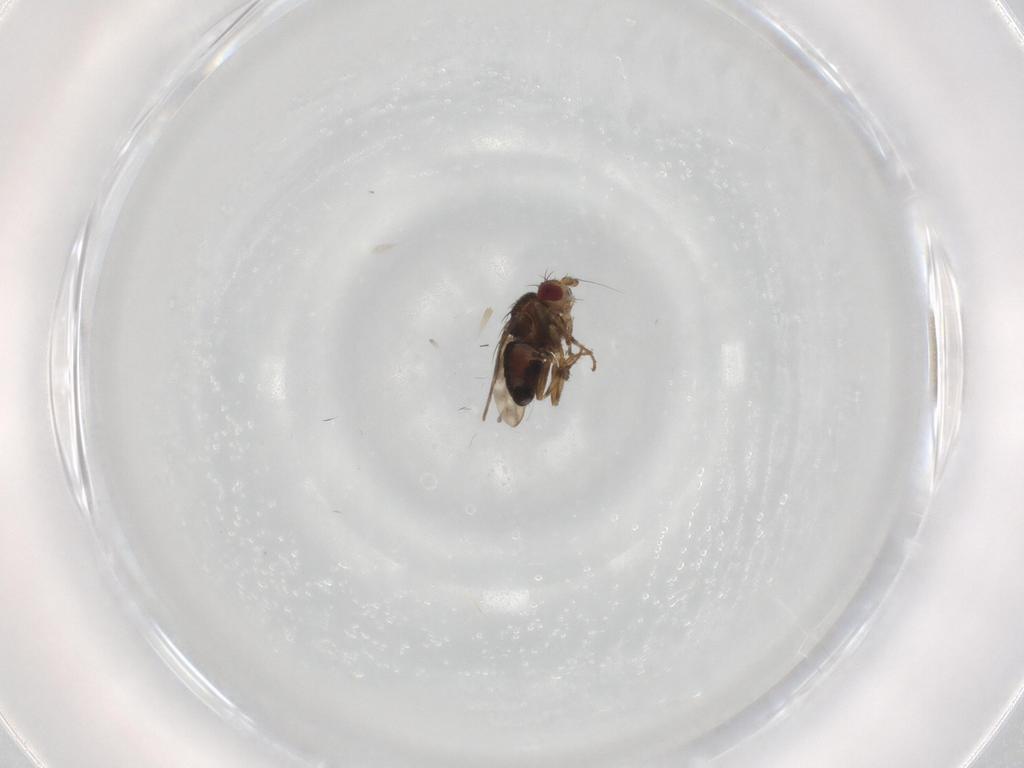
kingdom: Animalia
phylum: Arthropoda
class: Insecta
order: Diptera
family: Sphaeroceridae
